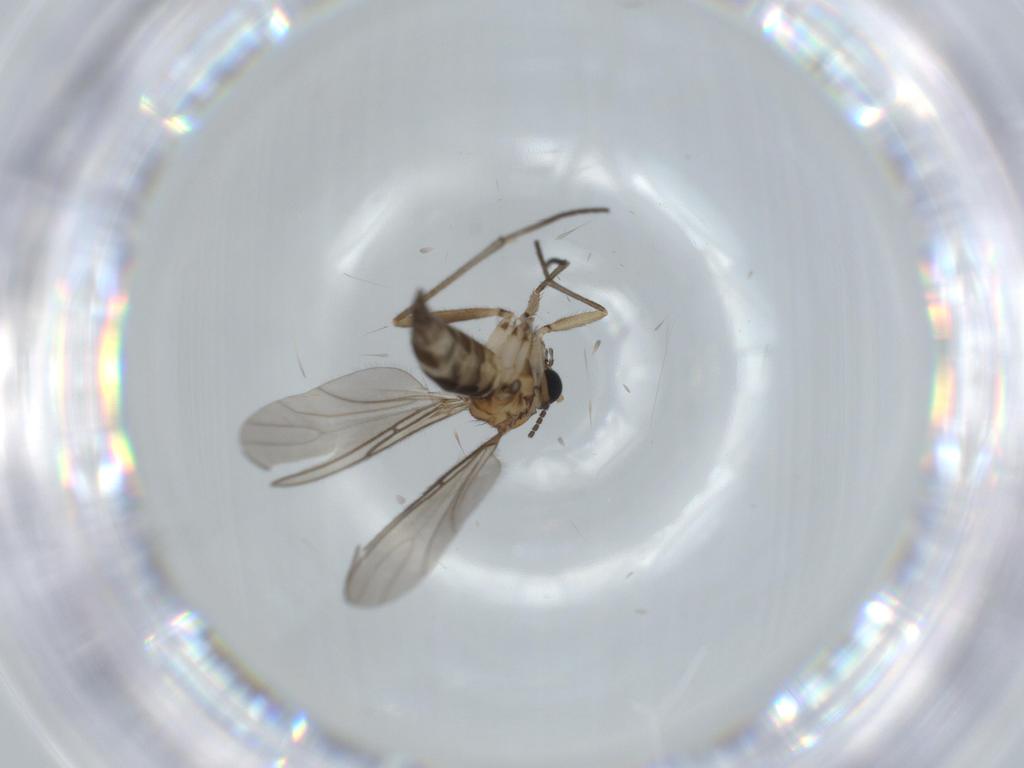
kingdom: Animalia
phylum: Arthropoda
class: Insecta
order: Diptera
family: Sciaridae
